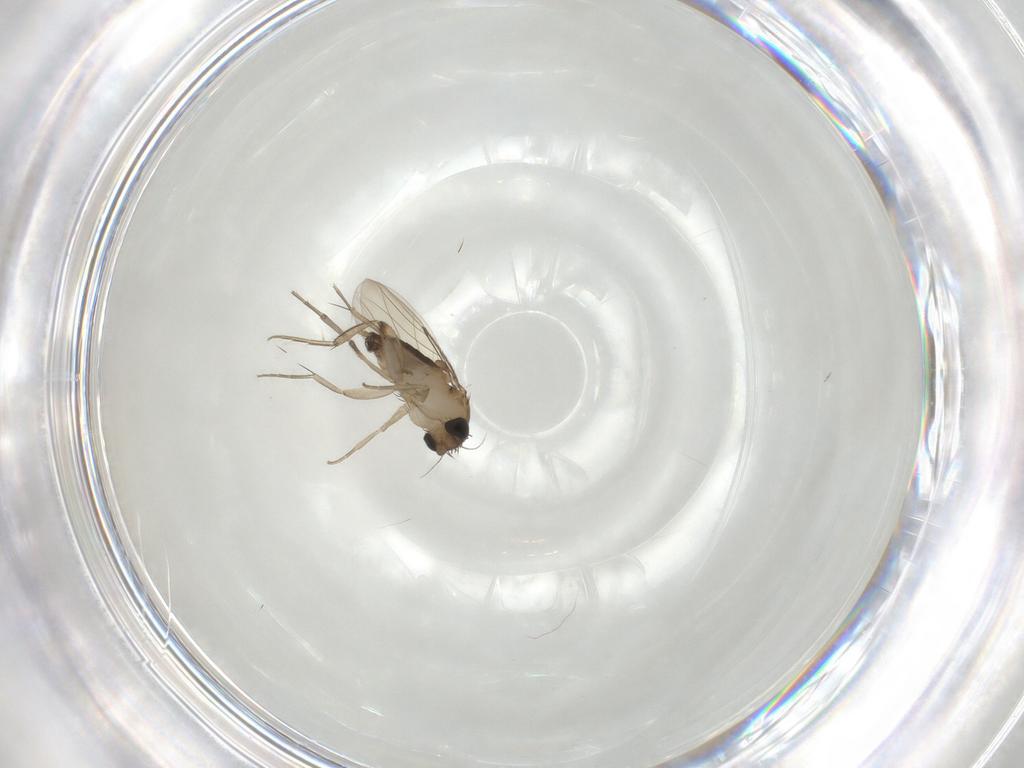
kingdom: Animalia
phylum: Arthropoda
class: Insecta
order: Diptera
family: Phoridae
